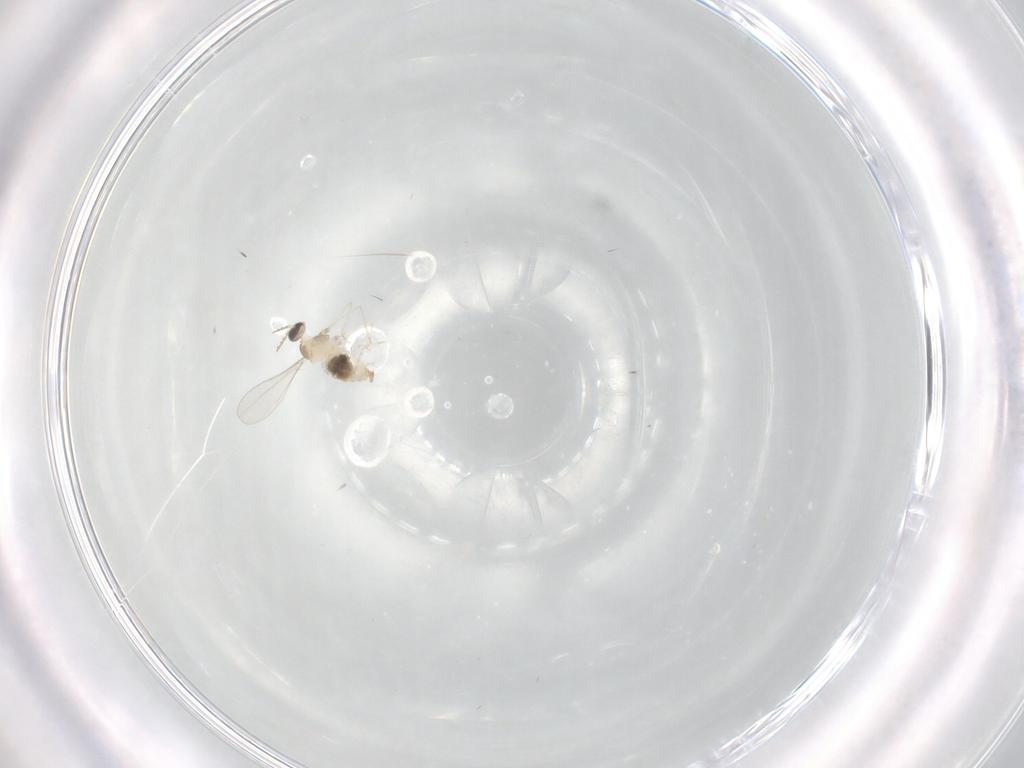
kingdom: Animalia
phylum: Arthropoda
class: Insecta
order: Diptera
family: Cecidomyiidae
